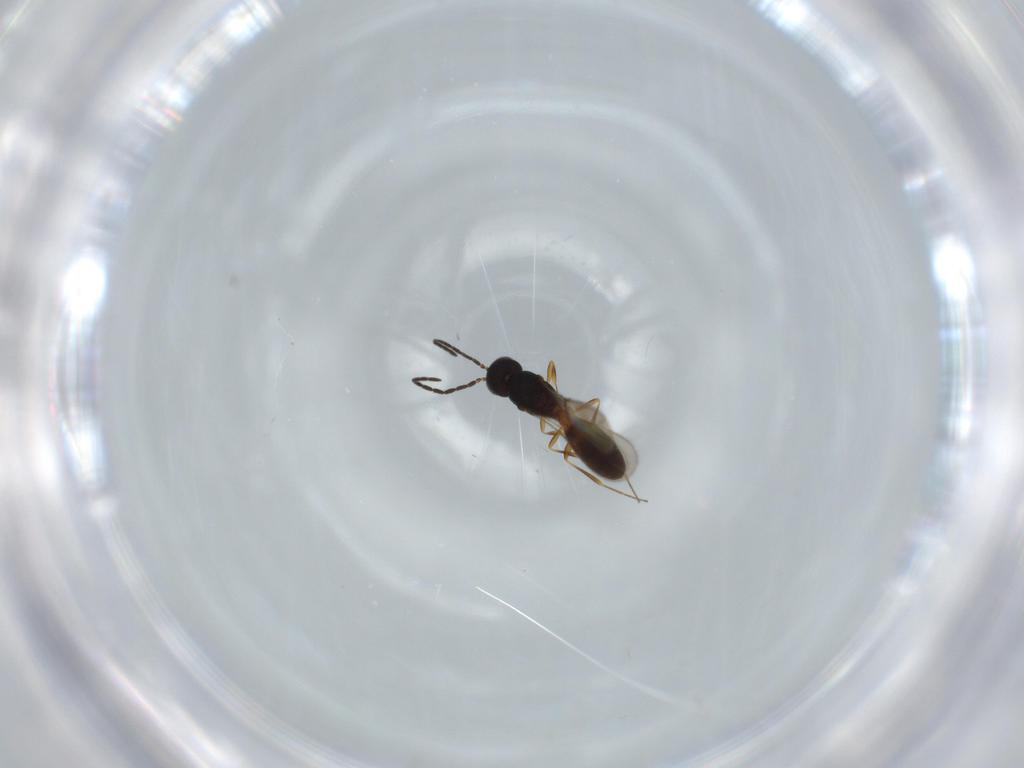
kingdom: Animalia
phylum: Arthropoda
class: Insecta
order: Hymenoptera
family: Scelionidae
